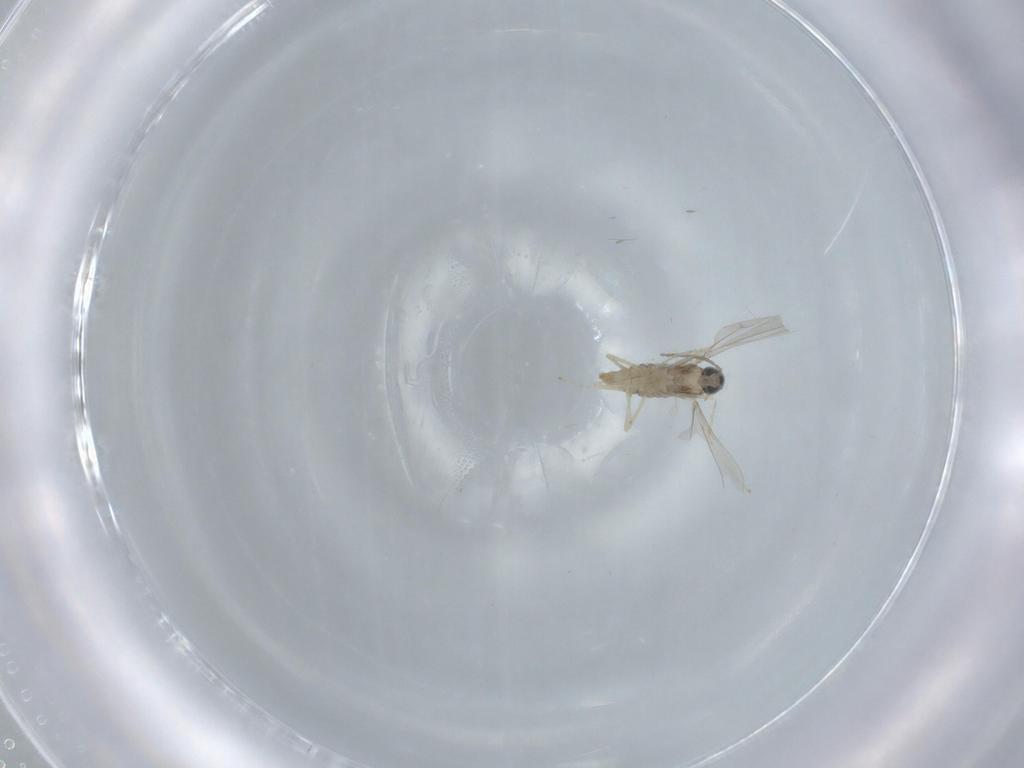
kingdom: Animalia
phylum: Arthropoda
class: Insecta
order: Diptera
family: Cecidomyiidae
